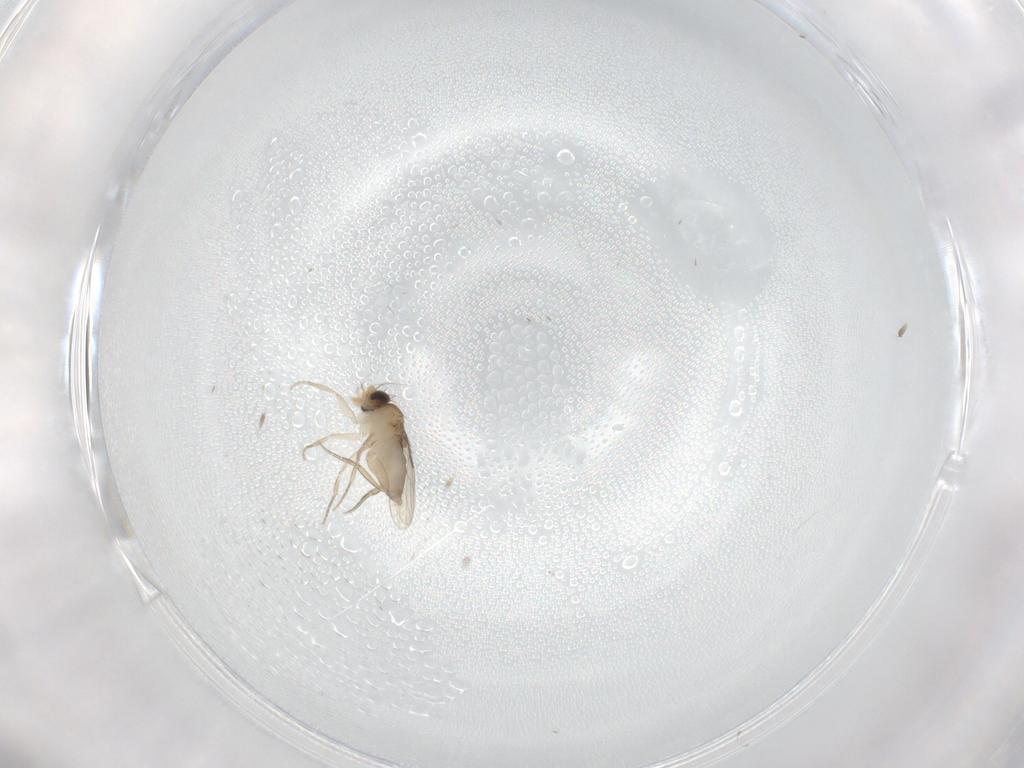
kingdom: Animalia
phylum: Arthropoda
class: Insecta
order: Diptera
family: Phoridae
